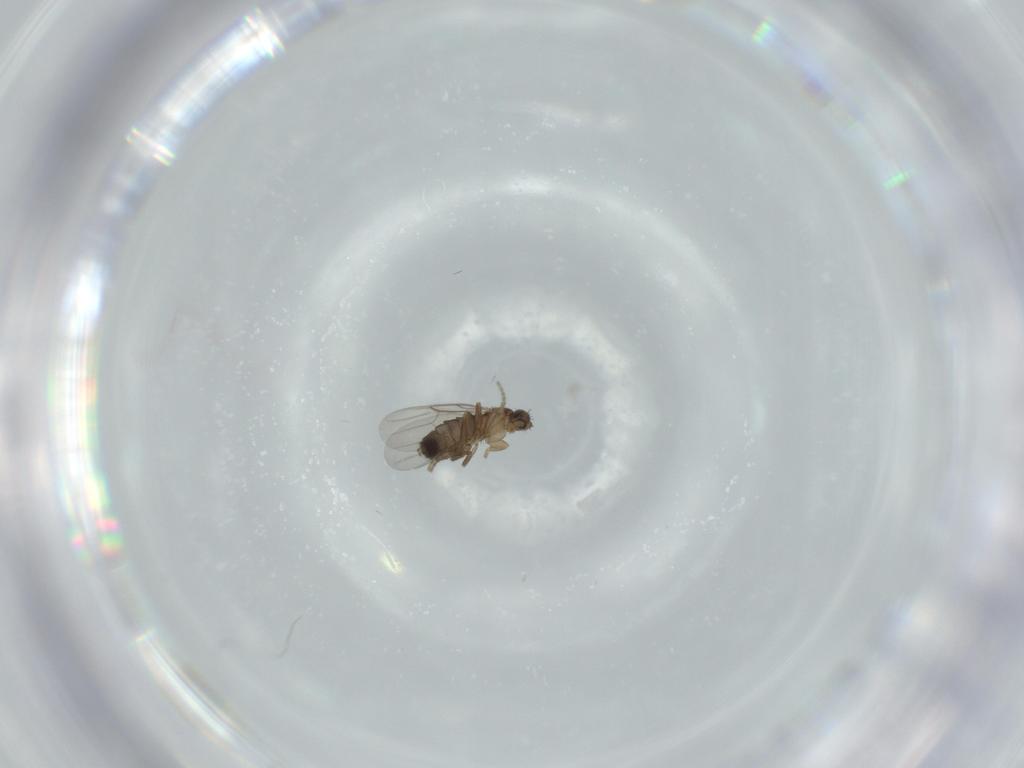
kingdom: Animalia
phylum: Arthropoda
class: Insecta
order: Diptera
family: Phoridae
